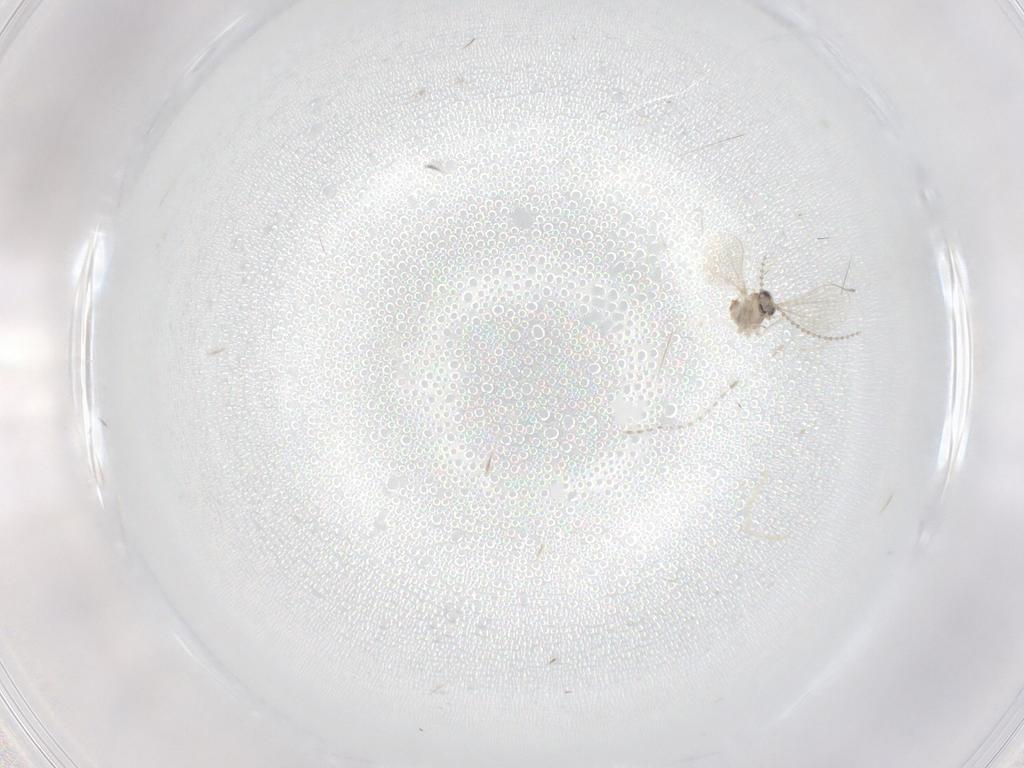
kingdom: Animalia
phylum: Arthropoda
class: Insecta
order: Diptera
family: Cecidomyiidae
